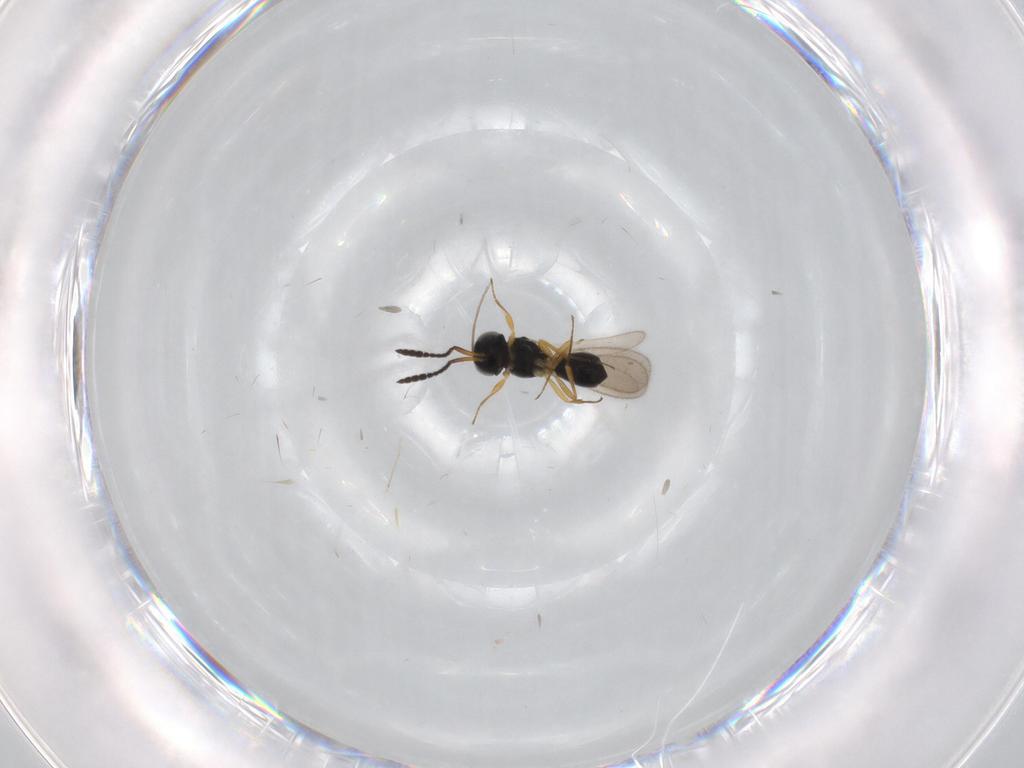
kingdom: Animalia
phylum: Arthropoda
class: Insecta
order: Hymenoptera
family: Scelionidae
